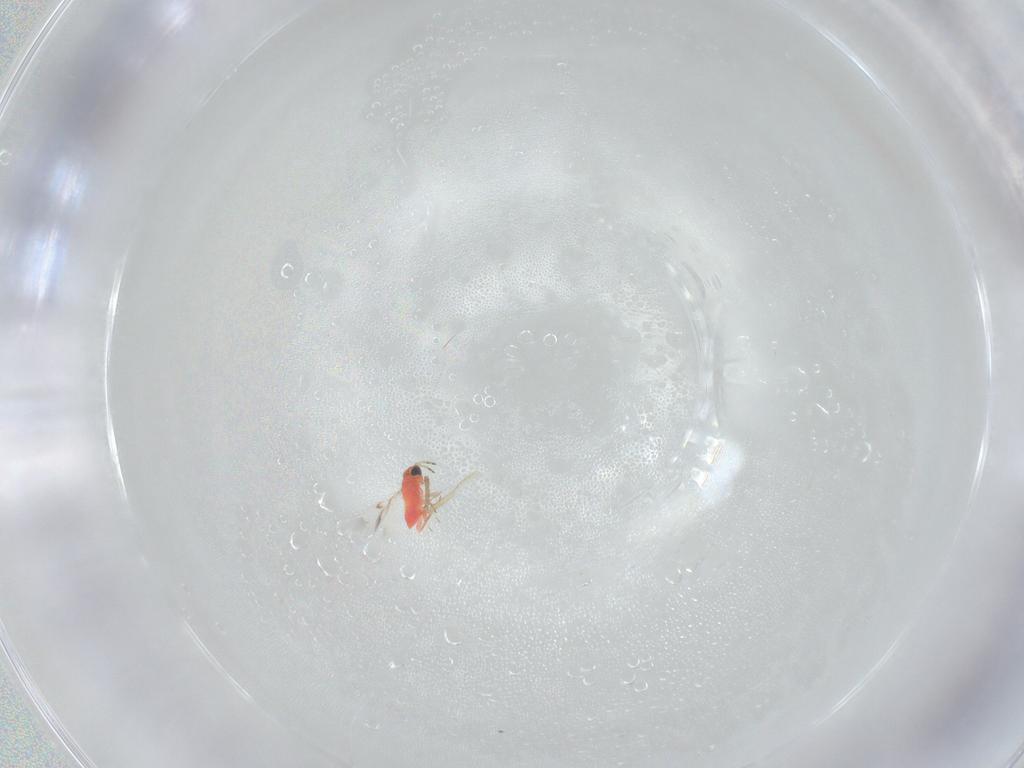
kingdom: Animalia
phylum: Arthropoda
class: Insecta
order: Hymenoptera
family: Trichogrammatidae
